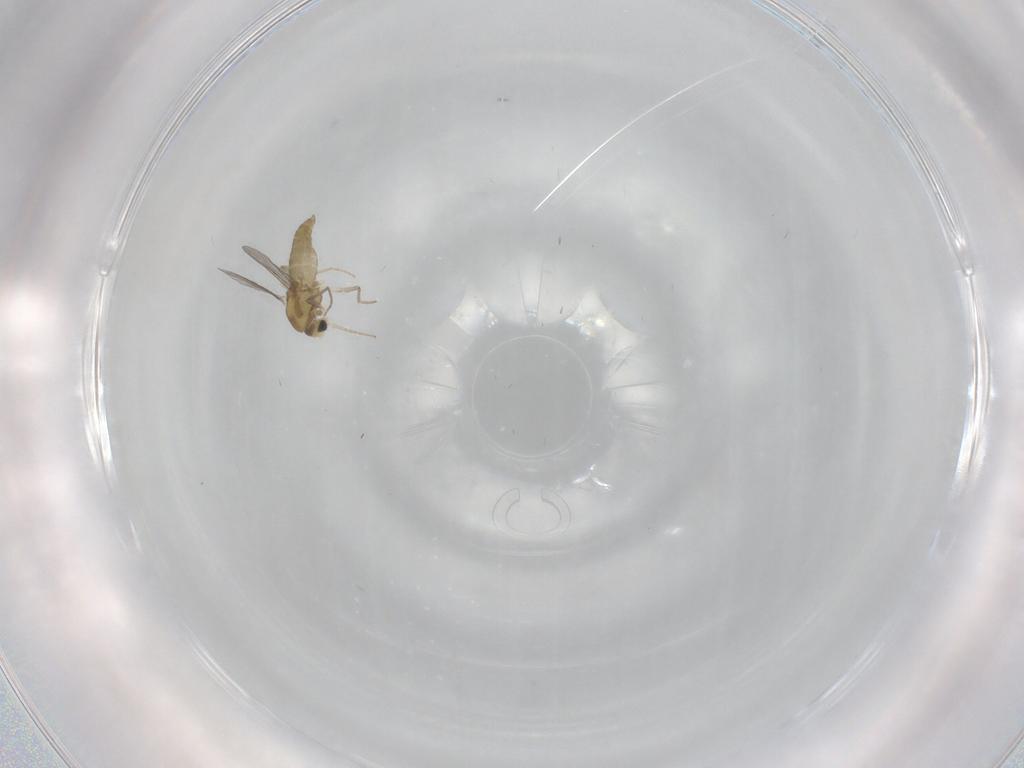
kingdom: Animalia
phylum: Arthropoda
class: Insecta
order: Diptera
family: Chironomidae
